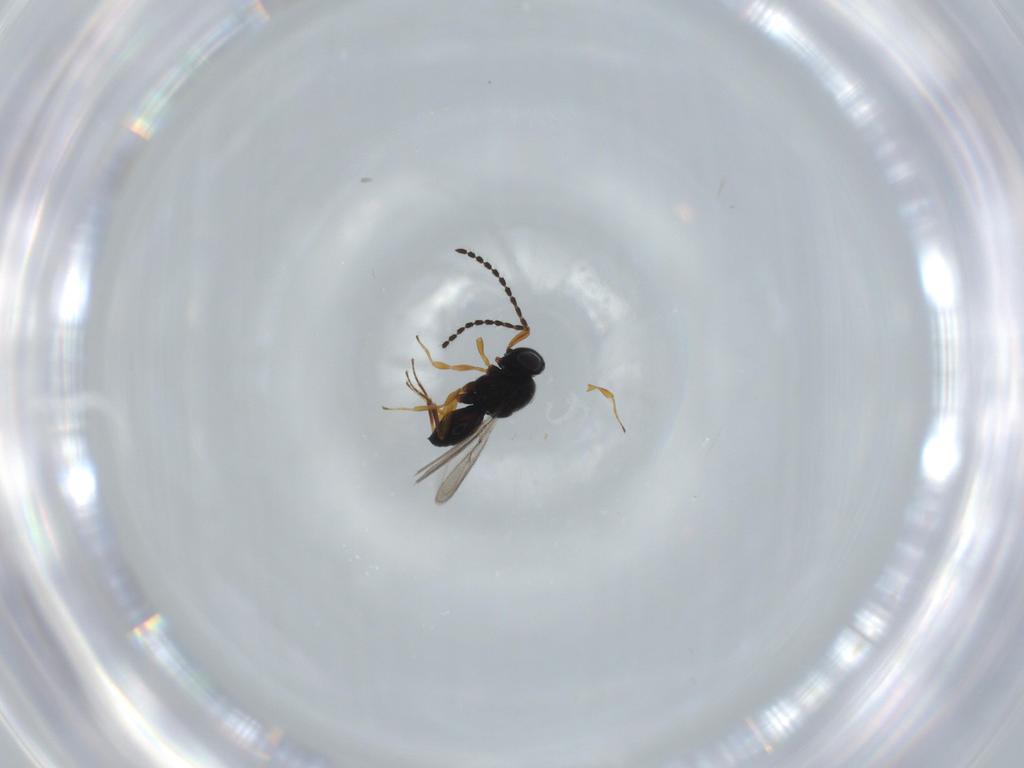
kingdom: Animalia
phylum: Arthropoda
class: Insecta
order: Hymenoptera
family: Scelionidae
